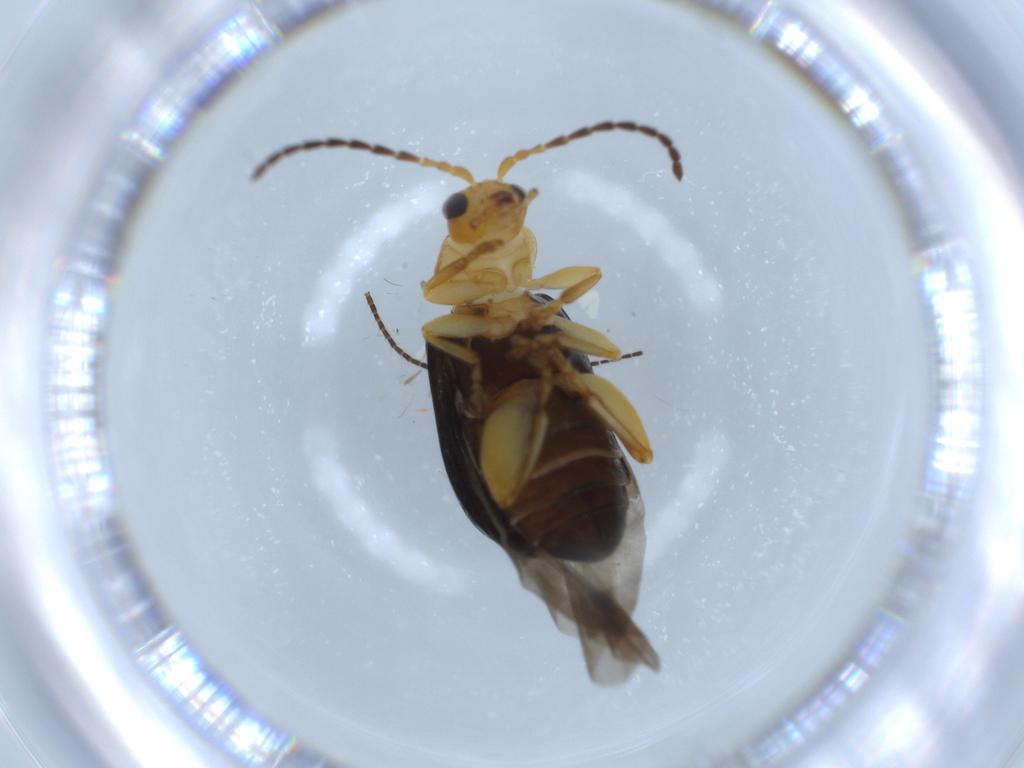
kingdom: Animalia
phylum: Arthropoda
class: Insecta
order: Coleoptera
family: Chrysomelidae
